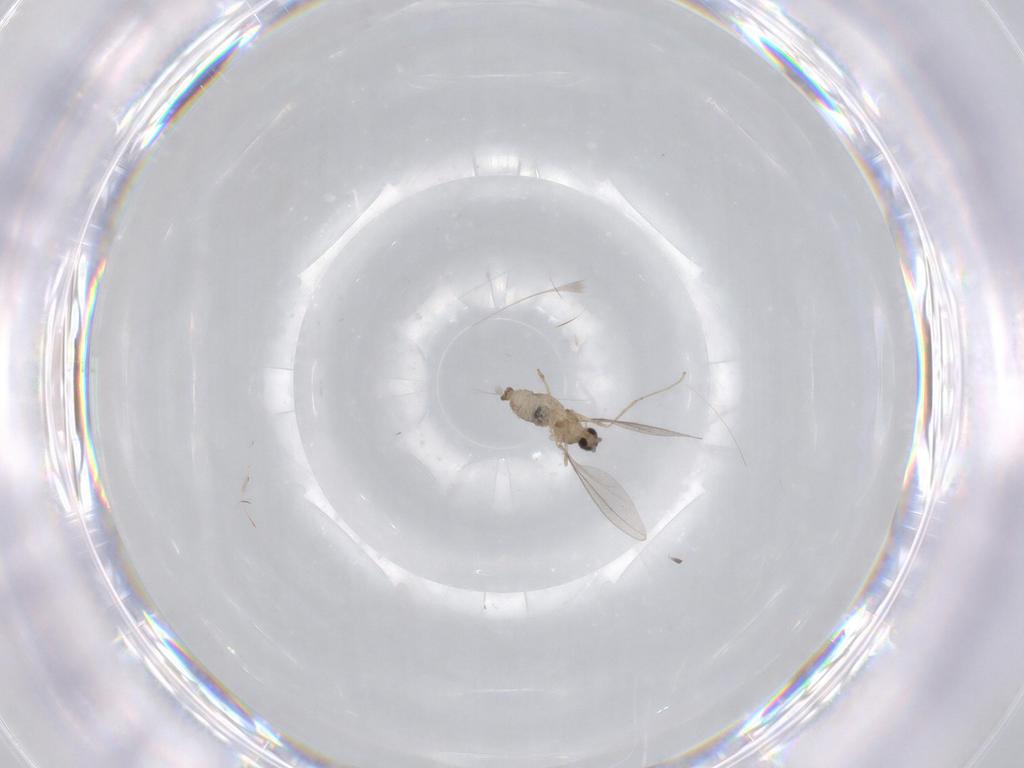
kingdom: Animalia
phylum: Arthropoda
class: Insecta
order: Diptera
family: Cecidomyiidae
